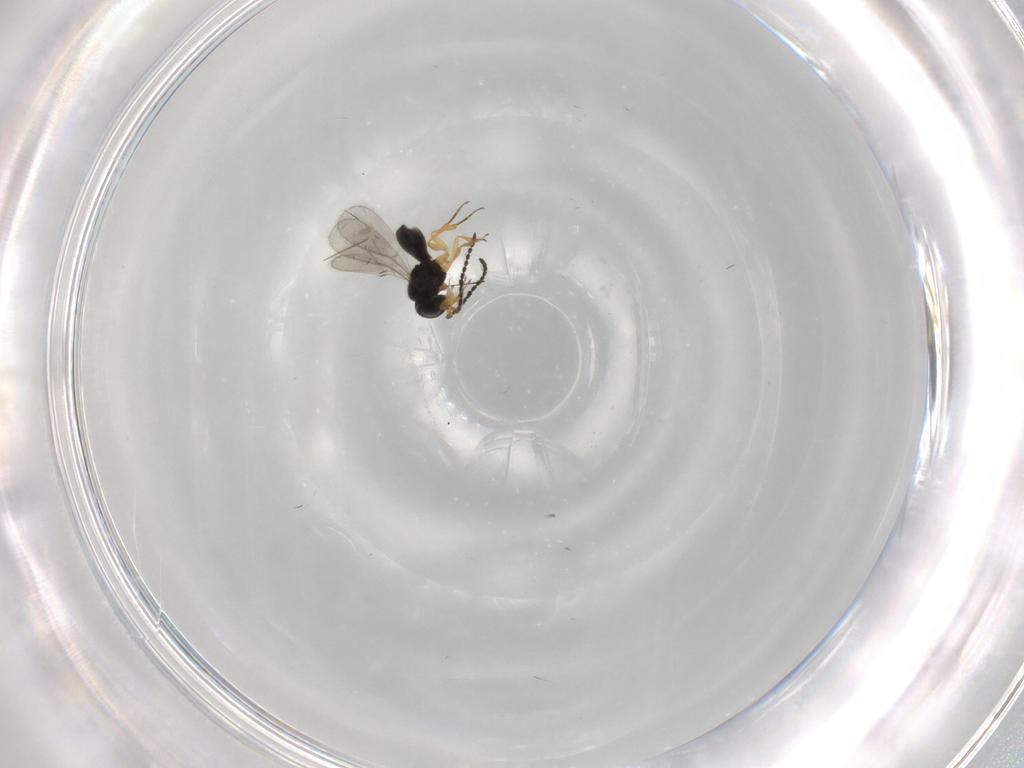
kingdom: Animalia
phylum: Arthropoda
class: Insecta
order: Hymenoptera
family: Scelionidae
